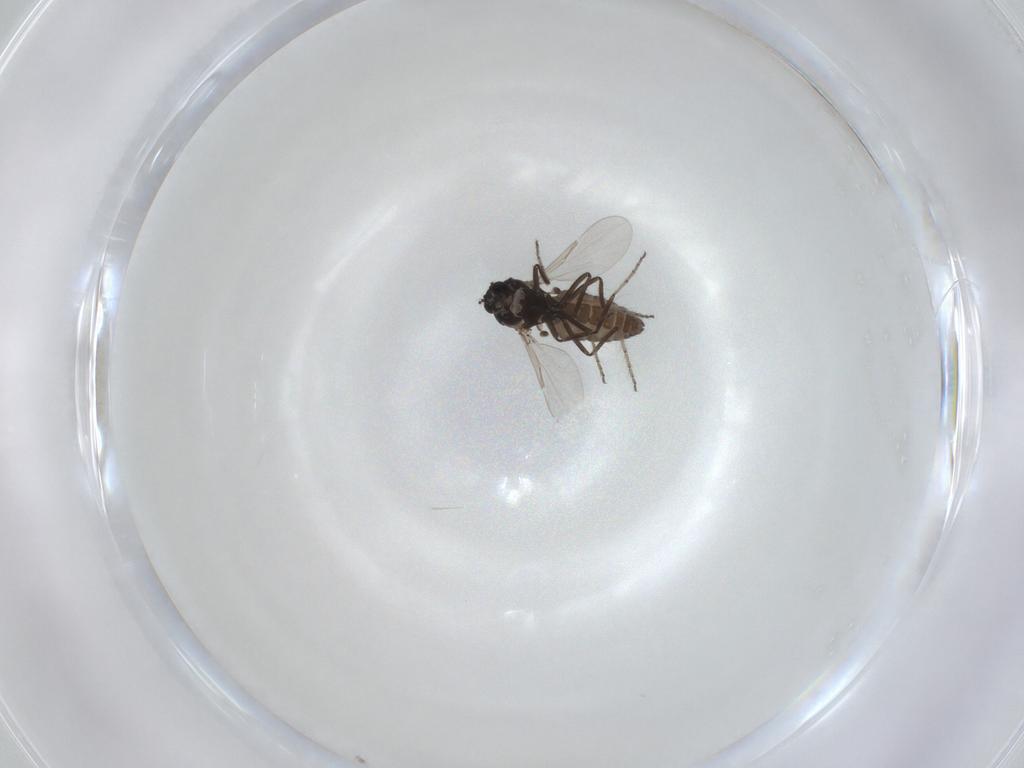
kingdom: Animalia
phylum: Arthropoda
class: Insecta
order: Diptera
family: Ceratopogonidae
